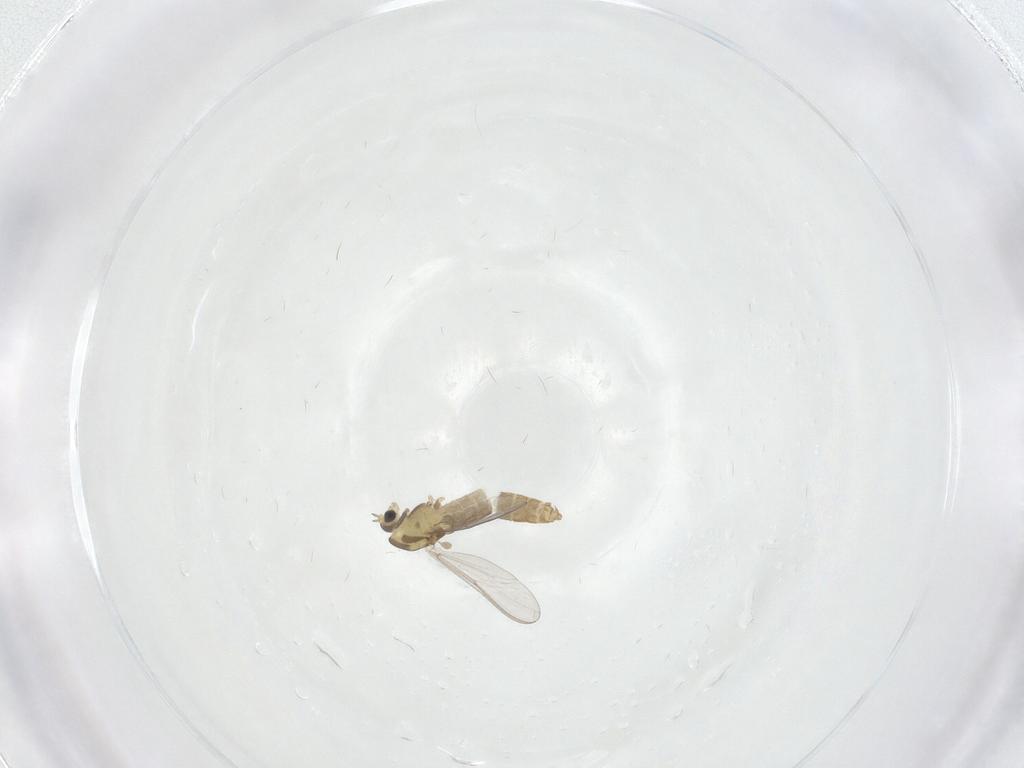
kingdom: Animalia
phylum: Arthropoda
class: Insecta
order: Diptera
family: Chironomidae
